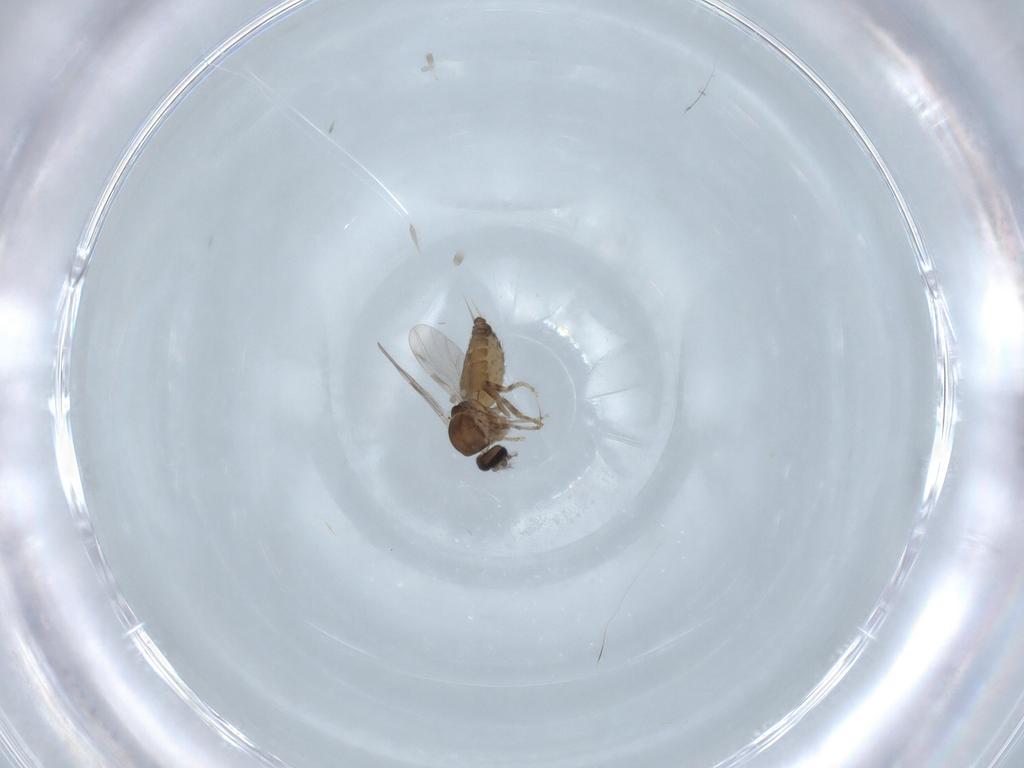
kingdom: Animalia
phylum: Arthropoda
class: Insecta
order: Diptera
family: Ceratopogonidae
